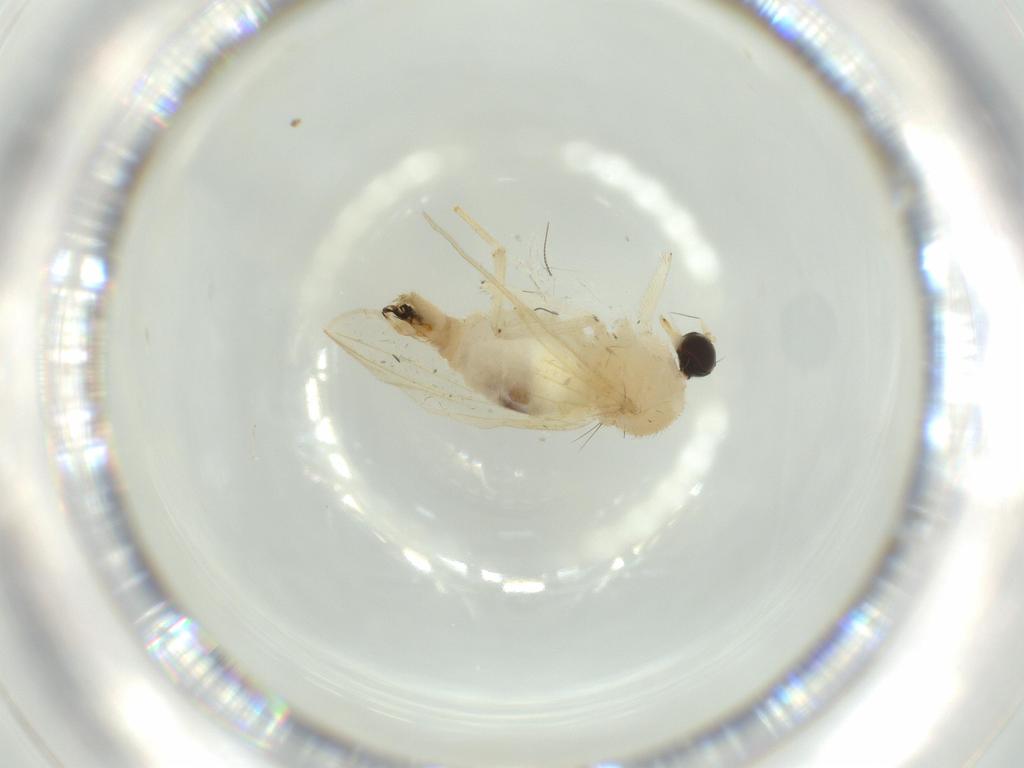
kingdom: Animalia
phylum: Arthropoda
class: Insecta
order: Diptera
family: Hybotidae
